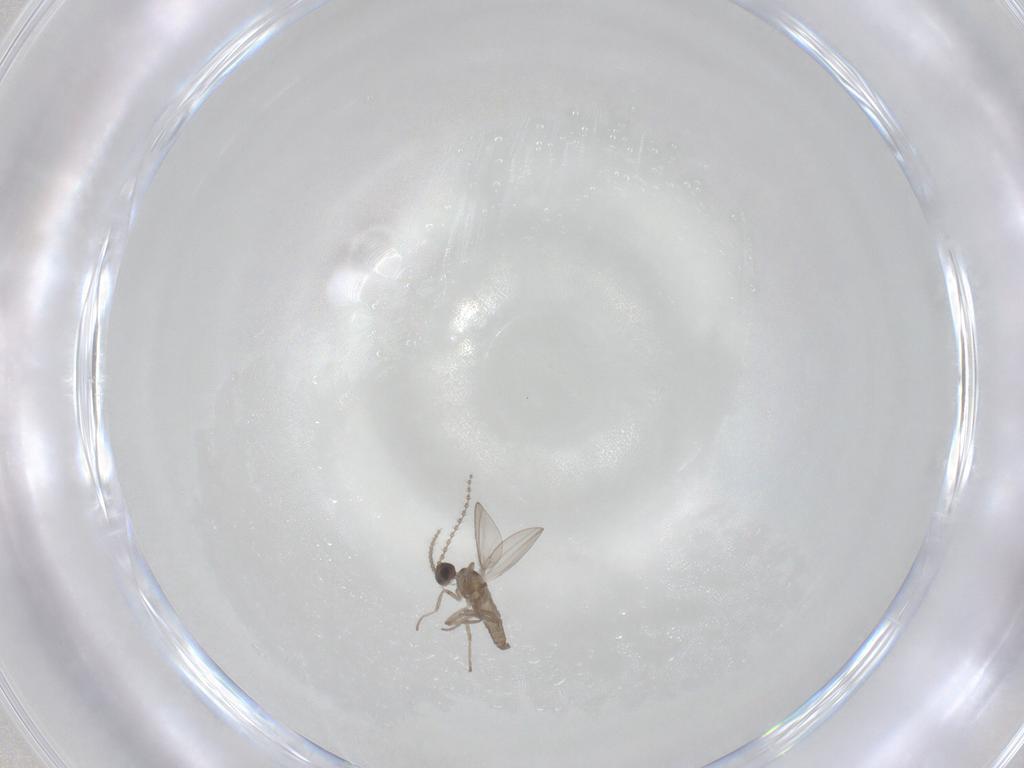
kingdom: Animalia
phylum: Arthropoda
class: Insecta
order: Diptera
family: Cecidomyiidae
